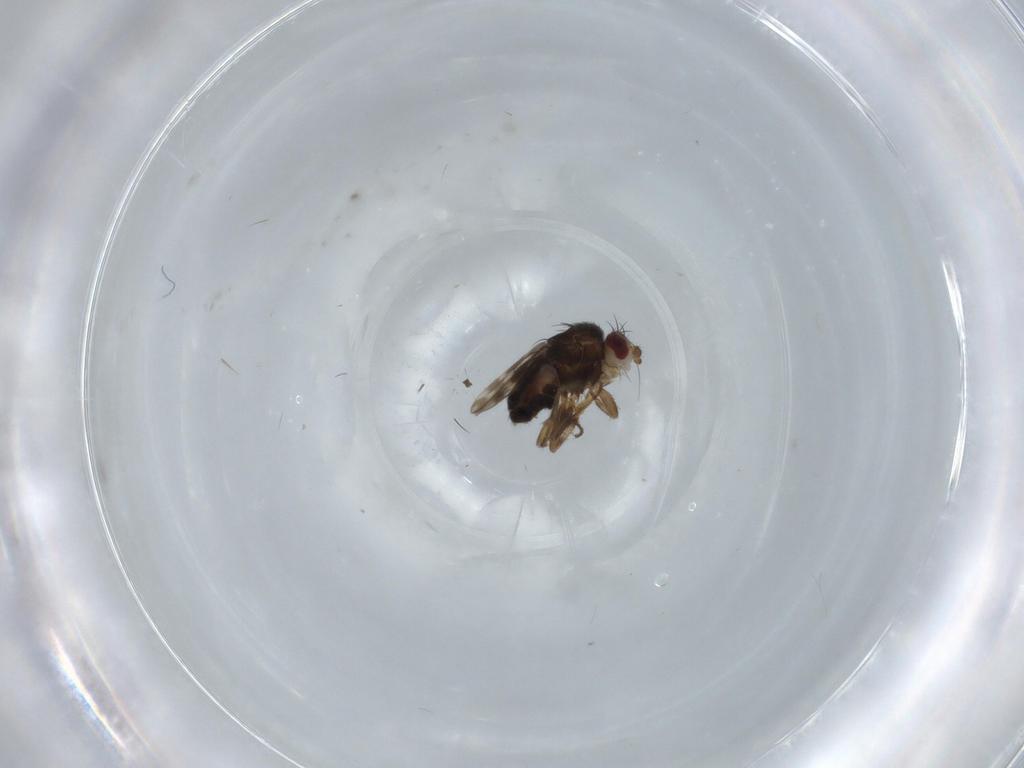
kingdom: Animalia
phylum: Arthropoda
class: Insecta
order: Diptera
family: Sphaeroceridae
